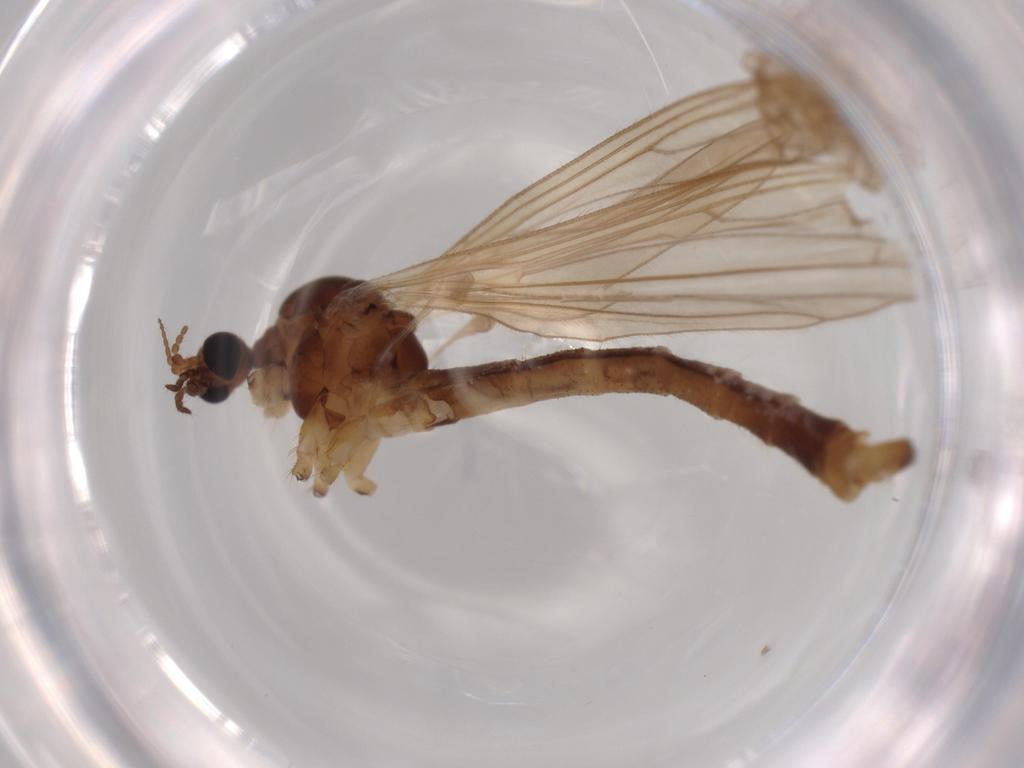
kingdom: Animalia
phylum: Arthropoda
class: Insecta
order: Diptera
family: Limoniidae
